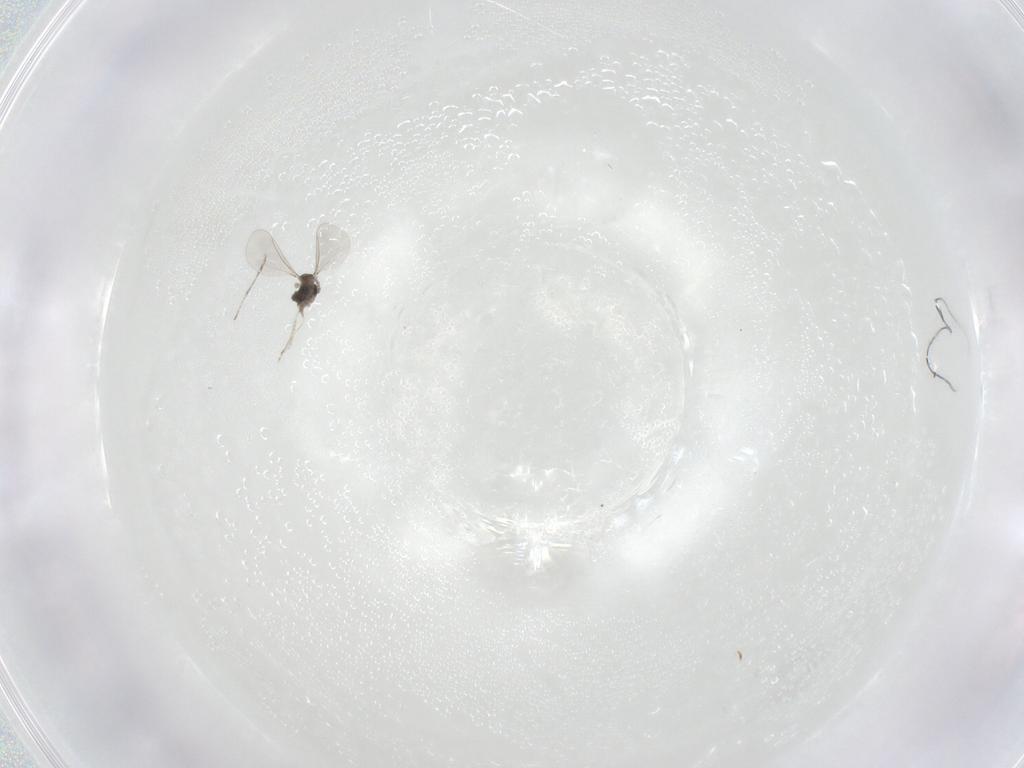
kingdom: Animalia
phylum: Arthropoda
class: Insecta
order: Diptera
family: Cecidomyiidae
